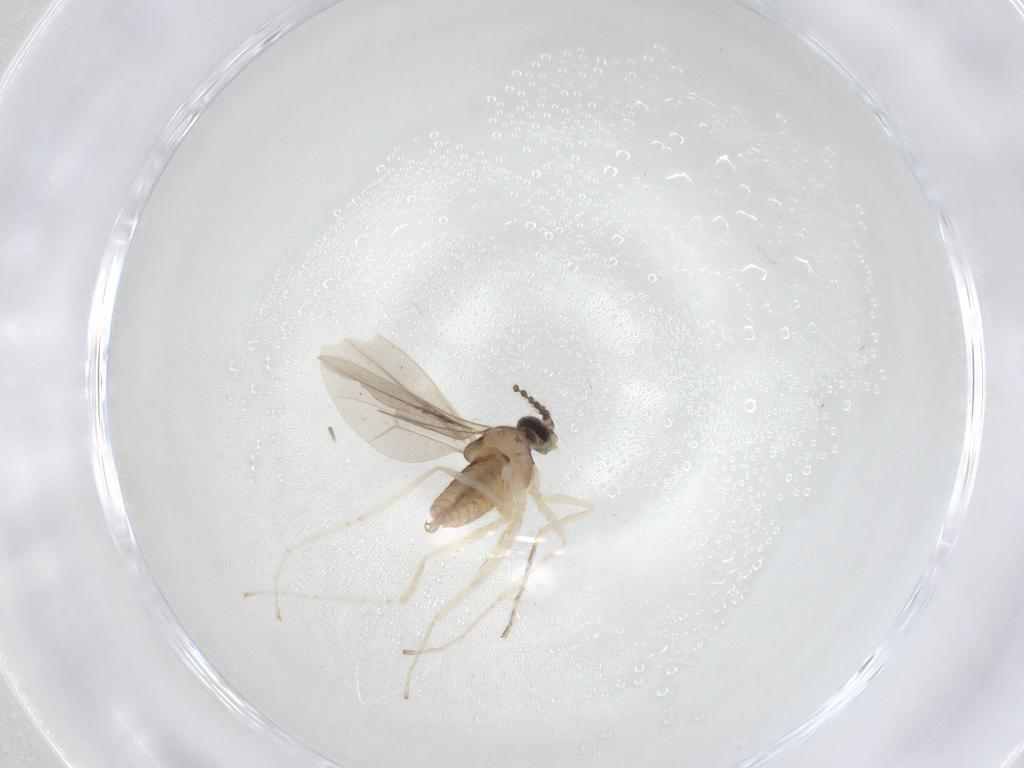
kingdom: Animalia
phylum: Arthropoda
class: Insecta
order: Diptera
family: Cecidomyiidae
